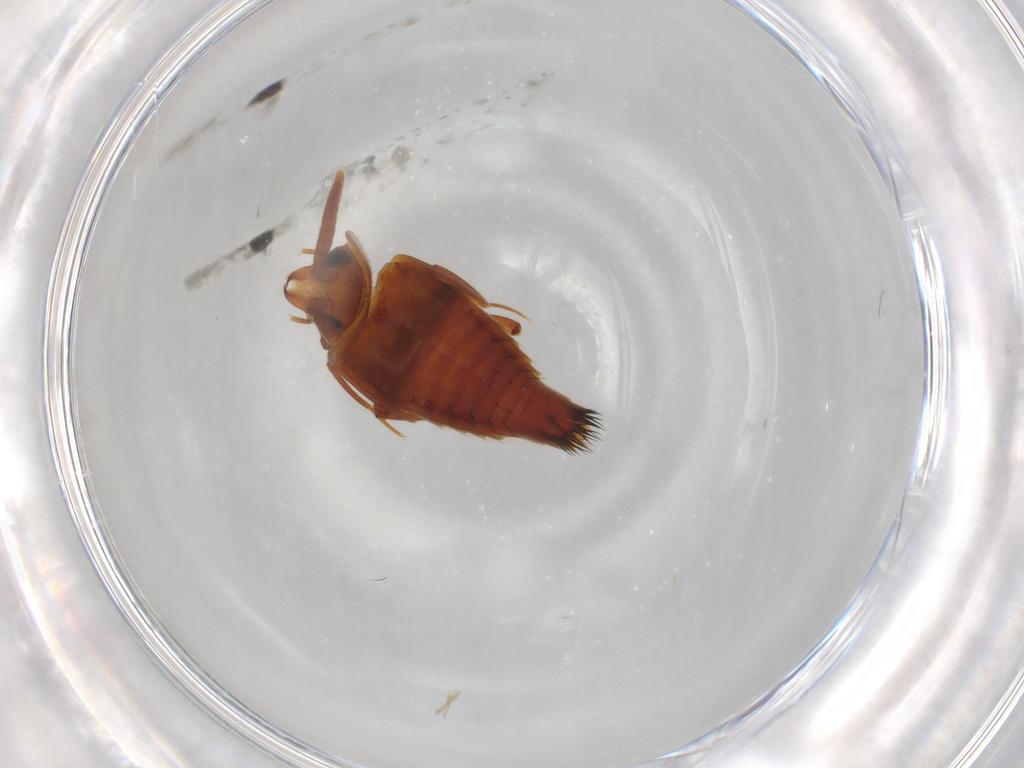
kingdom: Animalia
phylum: Arthropoda
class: Insecta
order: Coleoptera
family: Staphylinidae
